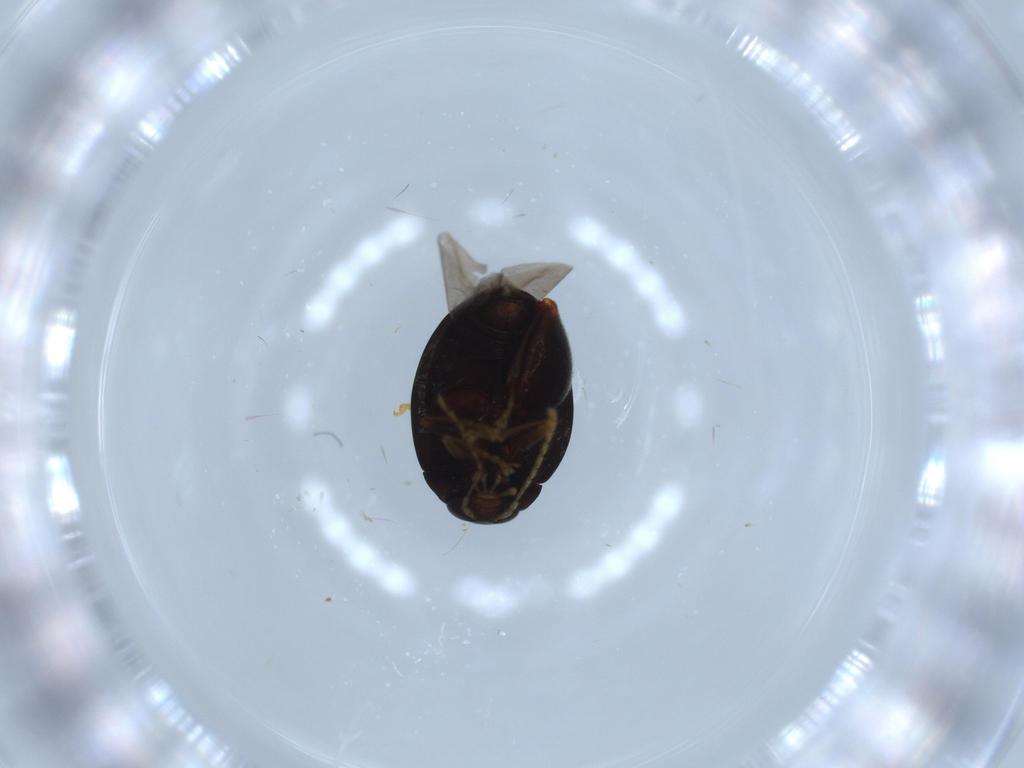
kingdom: Animalia
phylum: Arthropoda
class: Insecta
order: Coleoptera
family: Chrysomelidae
